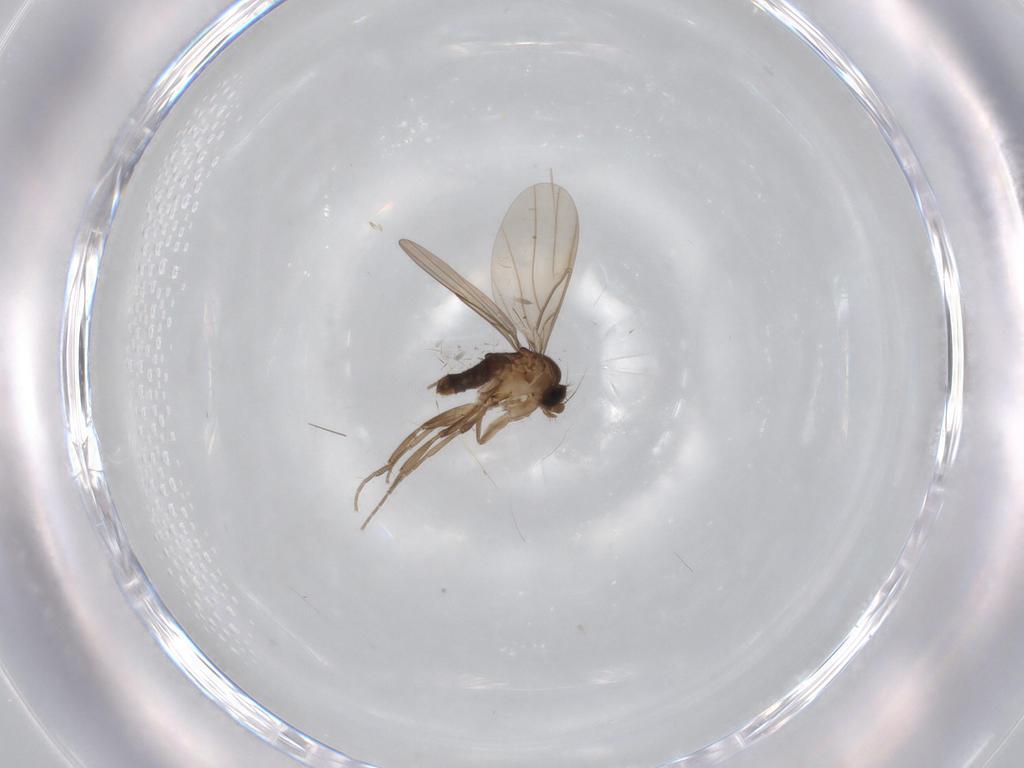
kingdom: Animalia
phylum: Arthropoda
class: Insecta
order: Diptera
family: Phoridae
